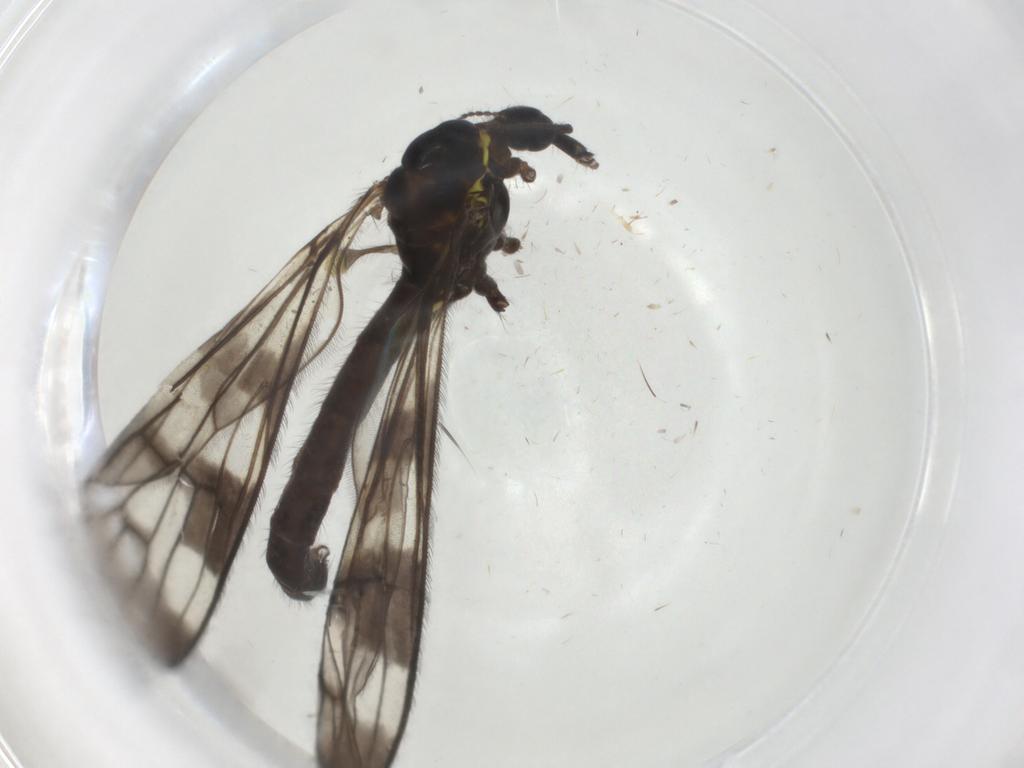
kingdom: Animalia
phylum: Arthropoda
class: Insecta
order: Diptera
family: Limoniidae
